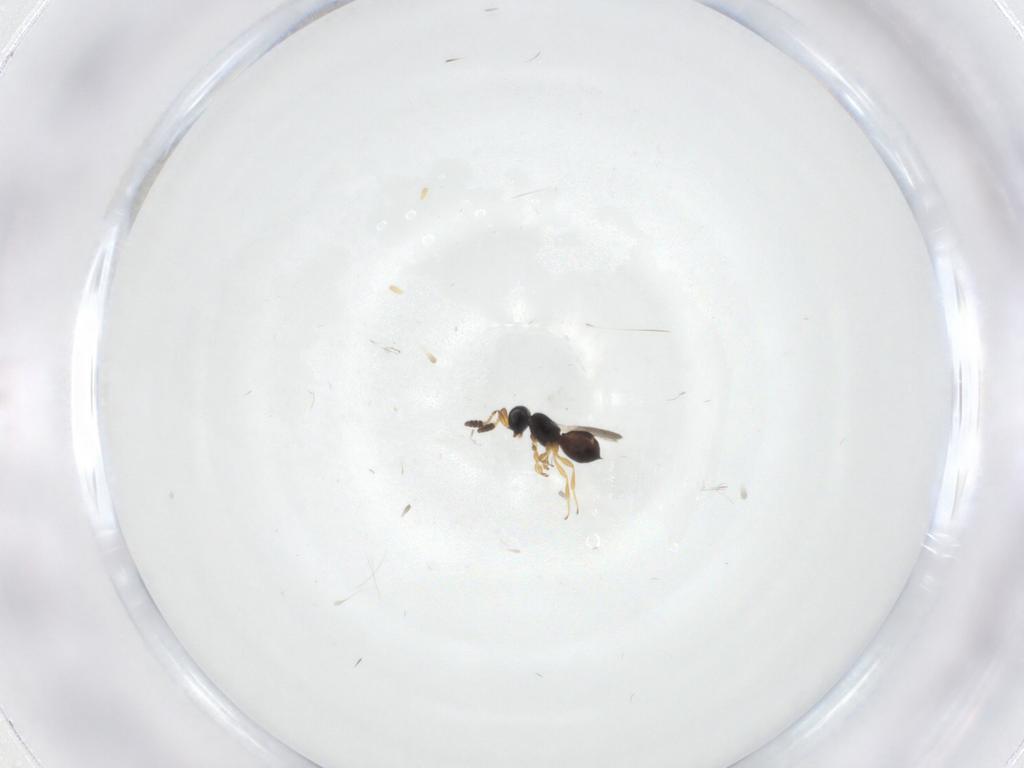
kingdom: Animalia
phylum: Arthropoda
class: Insecta
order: Hymenoptera
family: Scelionidae
